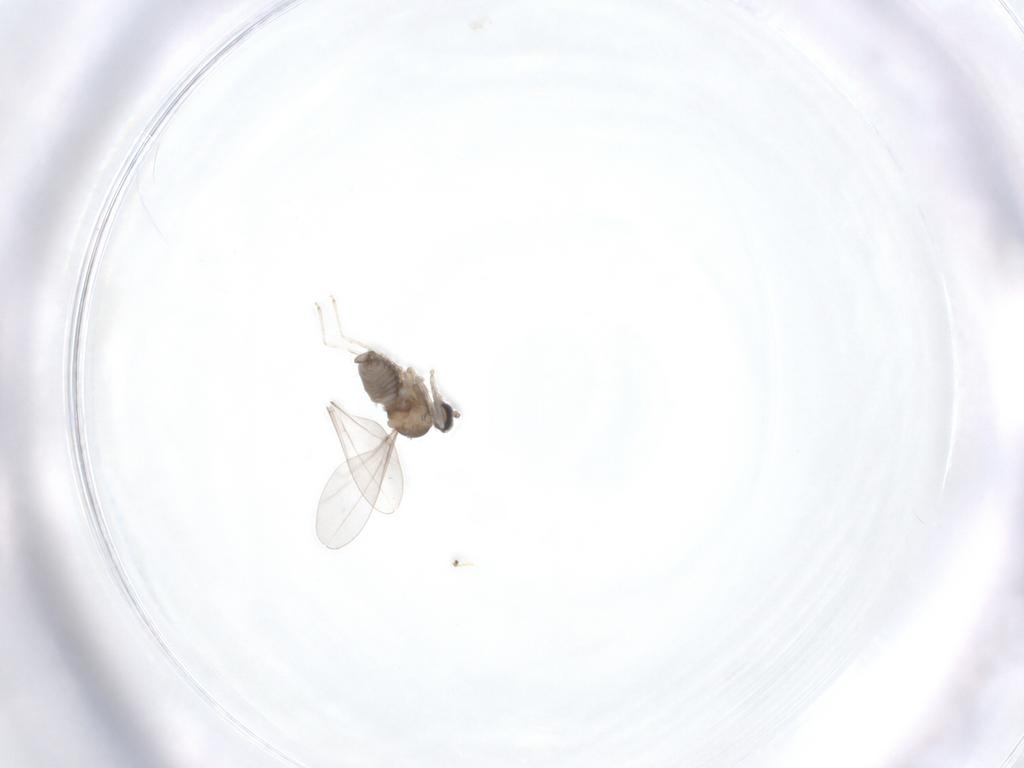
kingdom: Animalia
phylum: Arthropoda
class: Insecta
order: Diptera
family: Cecidomyiidae
